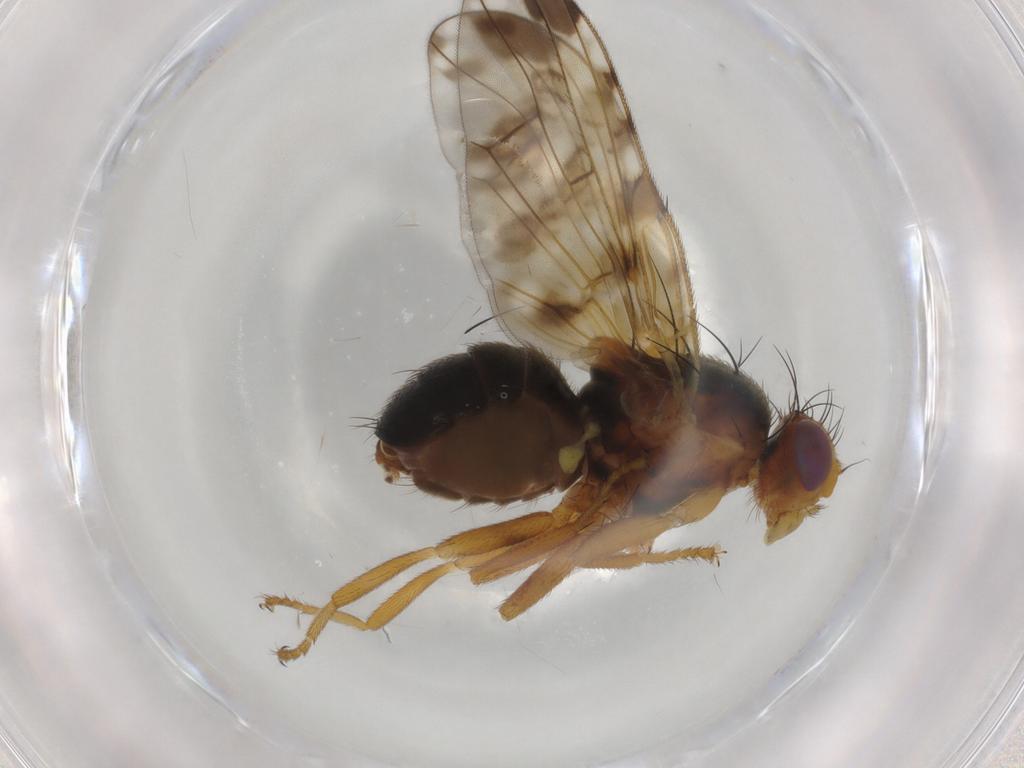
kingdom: Animalia
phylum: Arthropoda
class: Insecta
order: Diptera
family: Tephritidae
